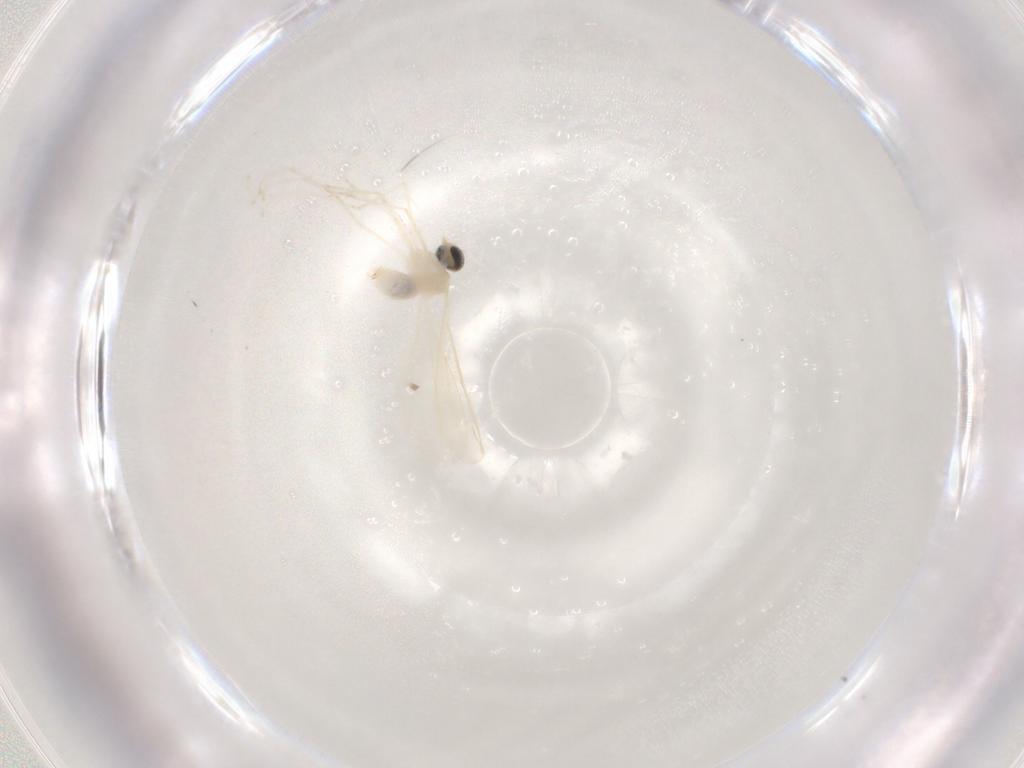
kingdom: Animalia
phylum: Arthropoda
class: Insecta
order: Diptera
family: Cecidomyiidae
